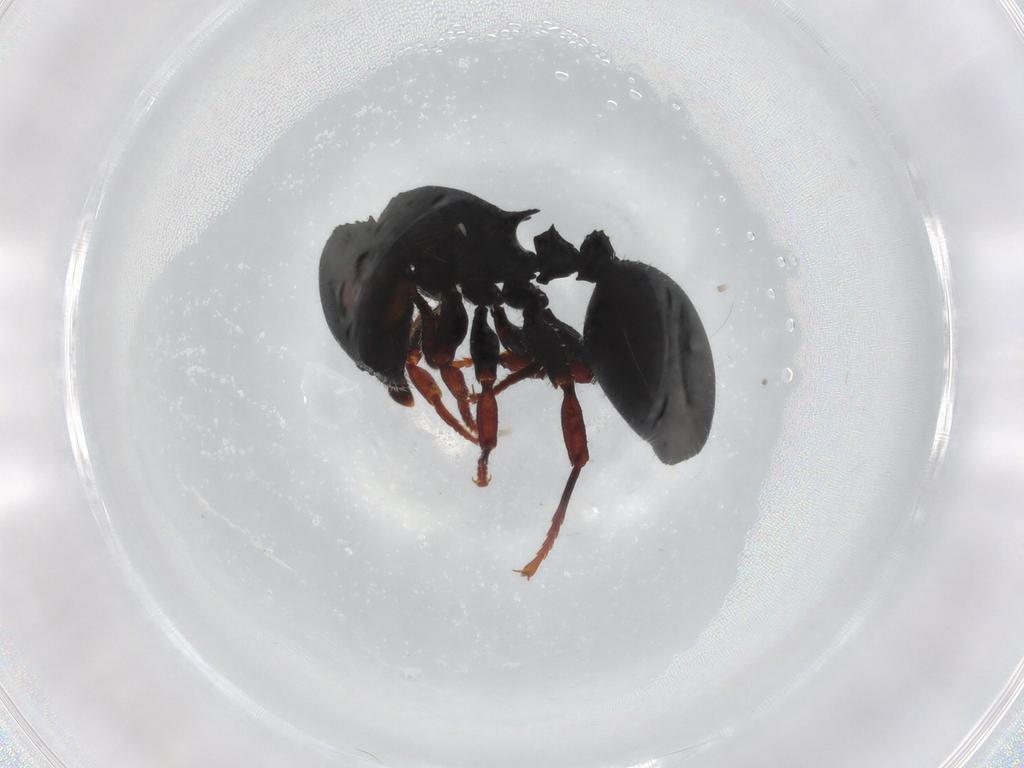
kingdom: Animalia
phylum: Arthropoda
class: Insecta
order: Hymenoptera
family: Formicidae
